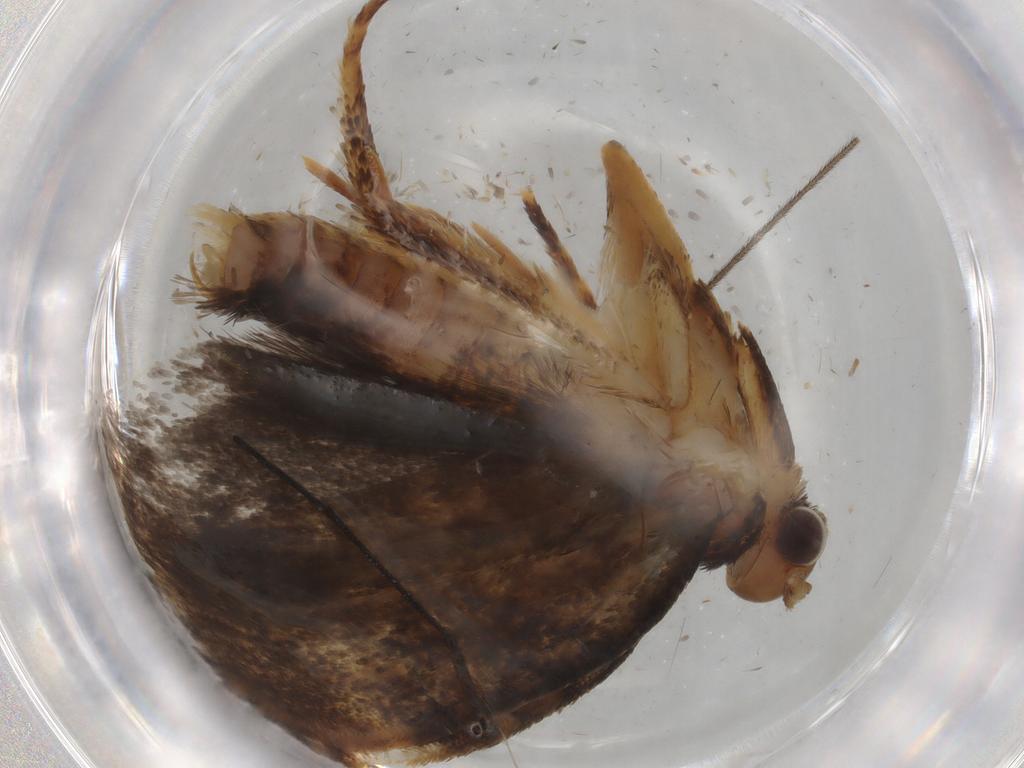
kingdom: Animalia
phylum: Arthropoda
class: Insecta
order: Lepidoptera
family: Tineidae
